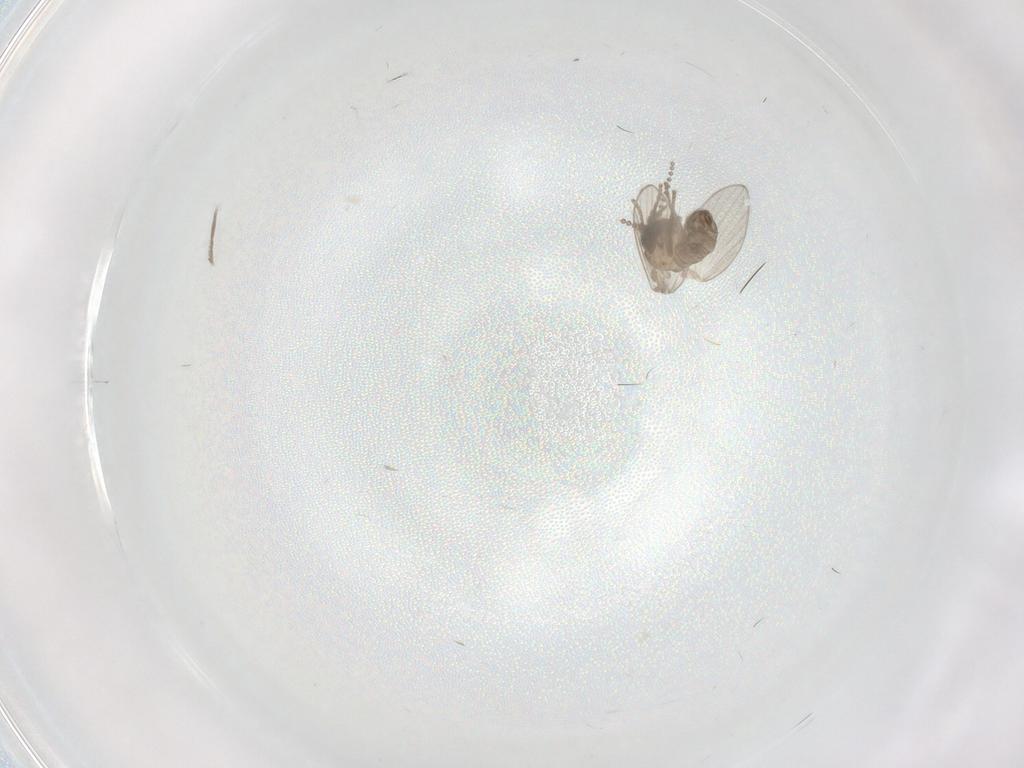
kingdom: Animalia
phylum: Arthropoda
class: Insecta
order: Diptera
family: Psychodidae
